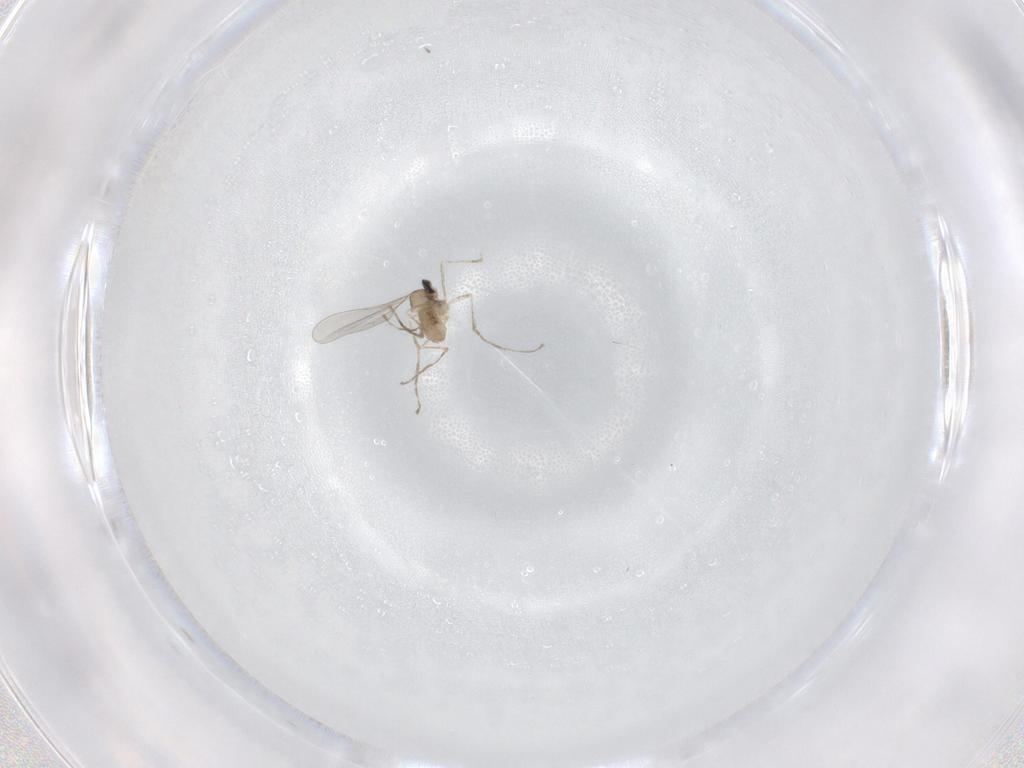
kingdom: Animalia
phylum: Arthropoda
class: Insecta
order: Diptera
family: Cecidomyiidae
